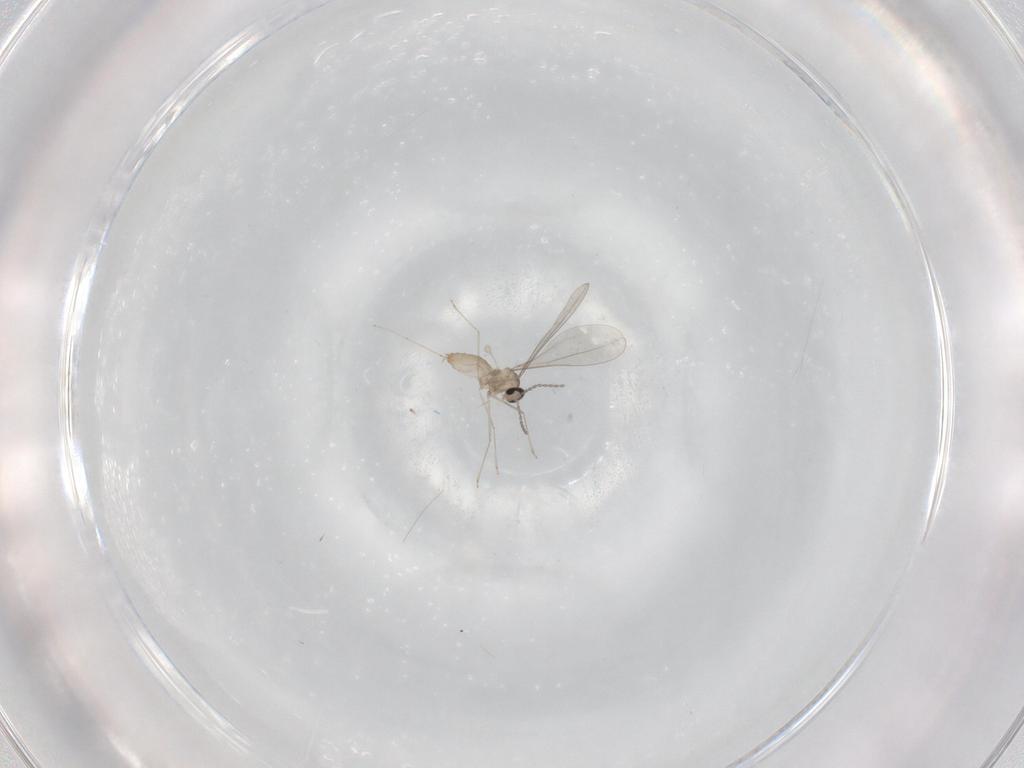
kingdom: Animalia
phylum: Arthropoda
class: Insecta
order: Diptera
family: Cecidomyiidae
